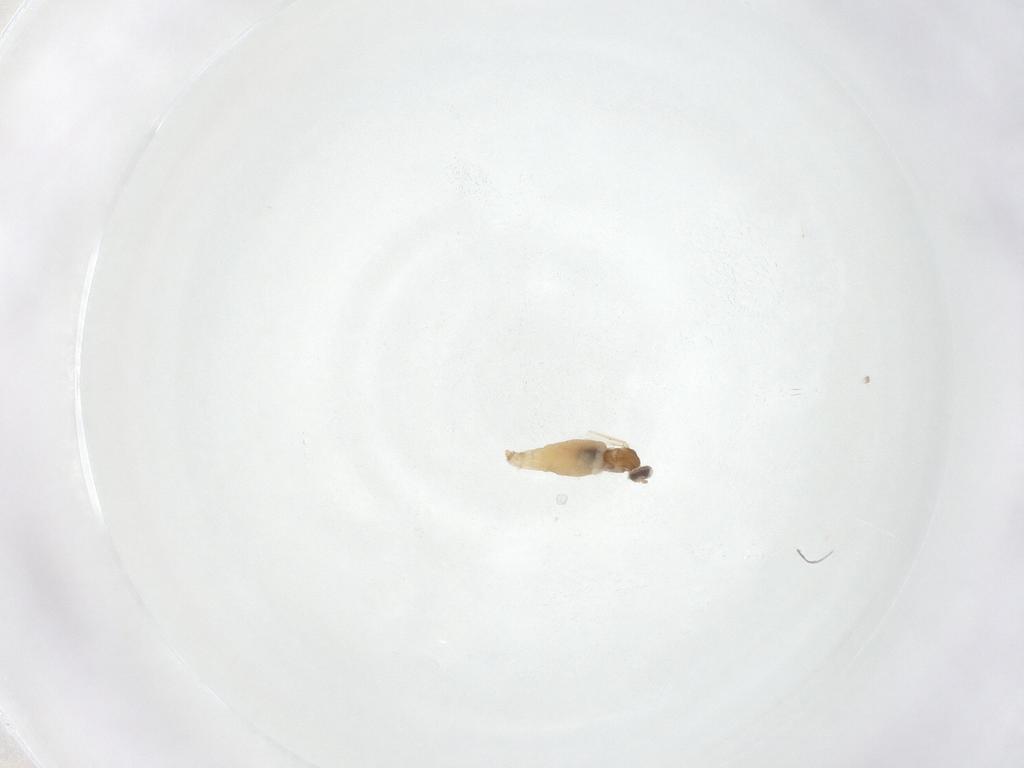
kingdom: Animalia
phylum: Arthropoda
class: Insecta
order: Diptera
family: Cecidomyiidae
